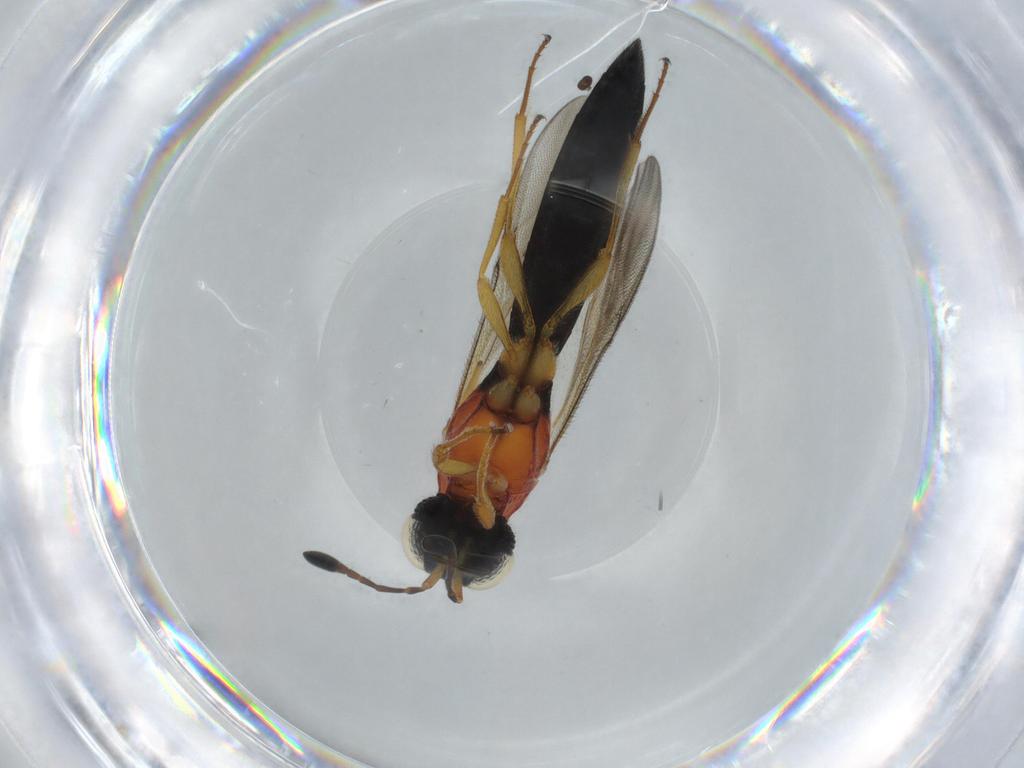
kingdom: Animalia
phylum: Arthropoda
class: Insecta
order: Hymenoptera
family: Scelionidae
